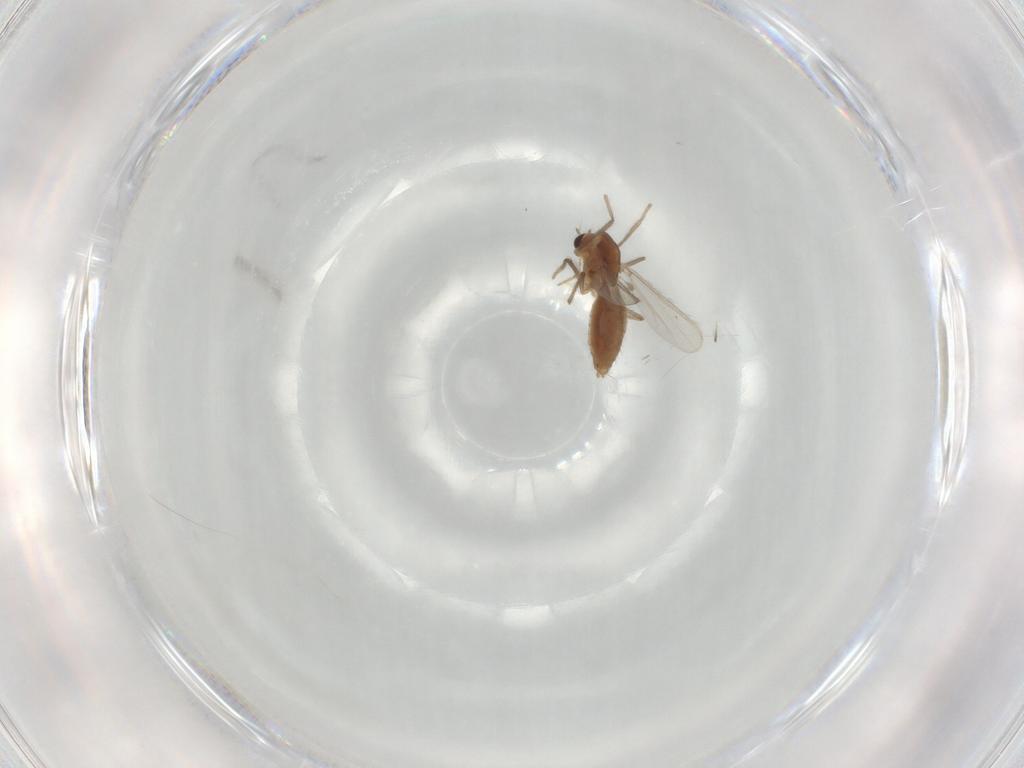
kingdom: Animalia
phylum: Arthropoda
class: Insecta
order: Diptera
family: Chironomidae
